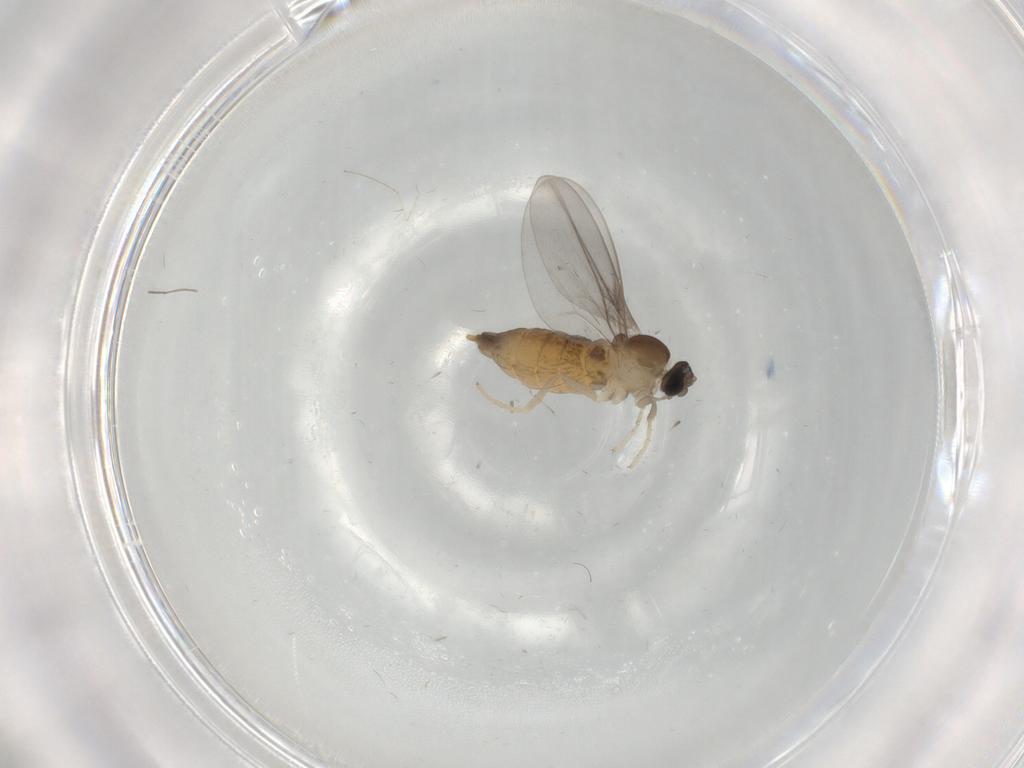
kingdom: Animalia
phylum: Arthropoda
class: Insecta
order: Diptera
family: Cecidomyiidae
